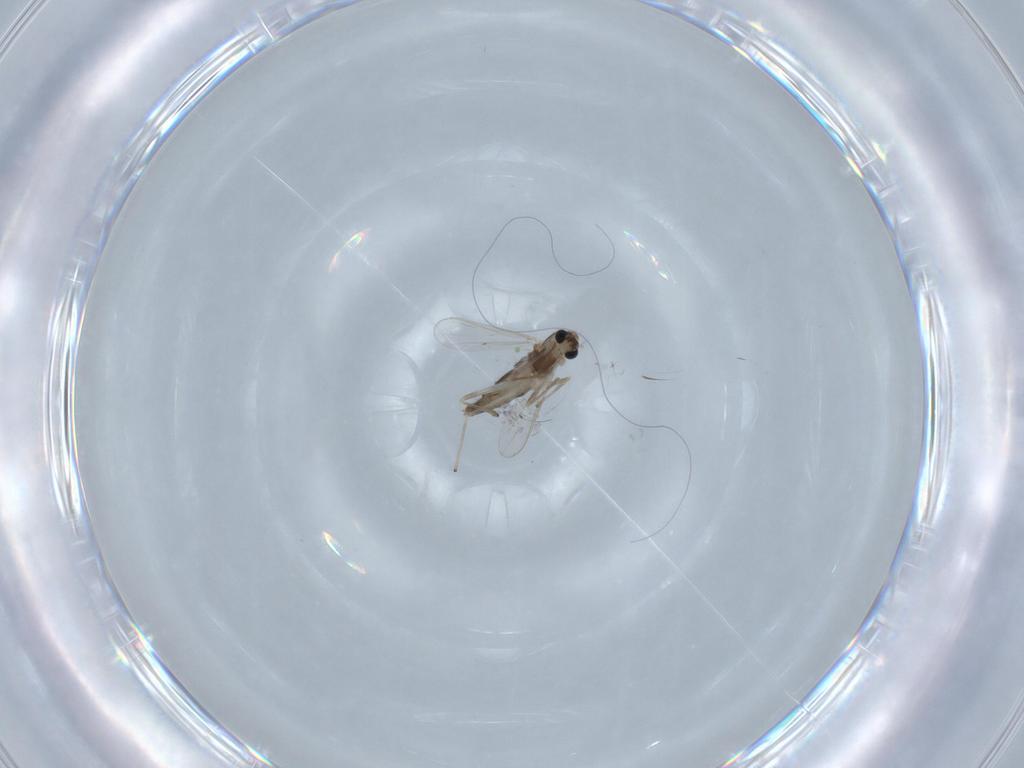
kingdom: Animalia
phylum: Arthropoda
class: Insecta
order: Diptera
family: Chironomidae
